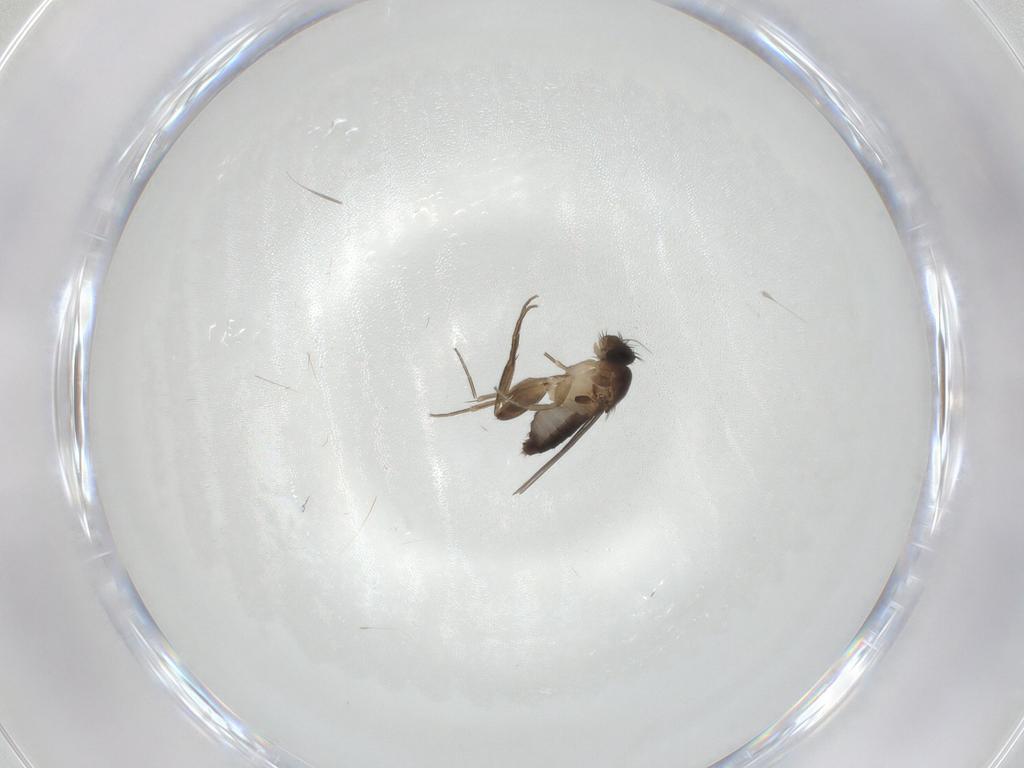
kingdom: Animalia
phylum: Arthropoda
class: Insecta
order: Diptera
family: Phoridae
